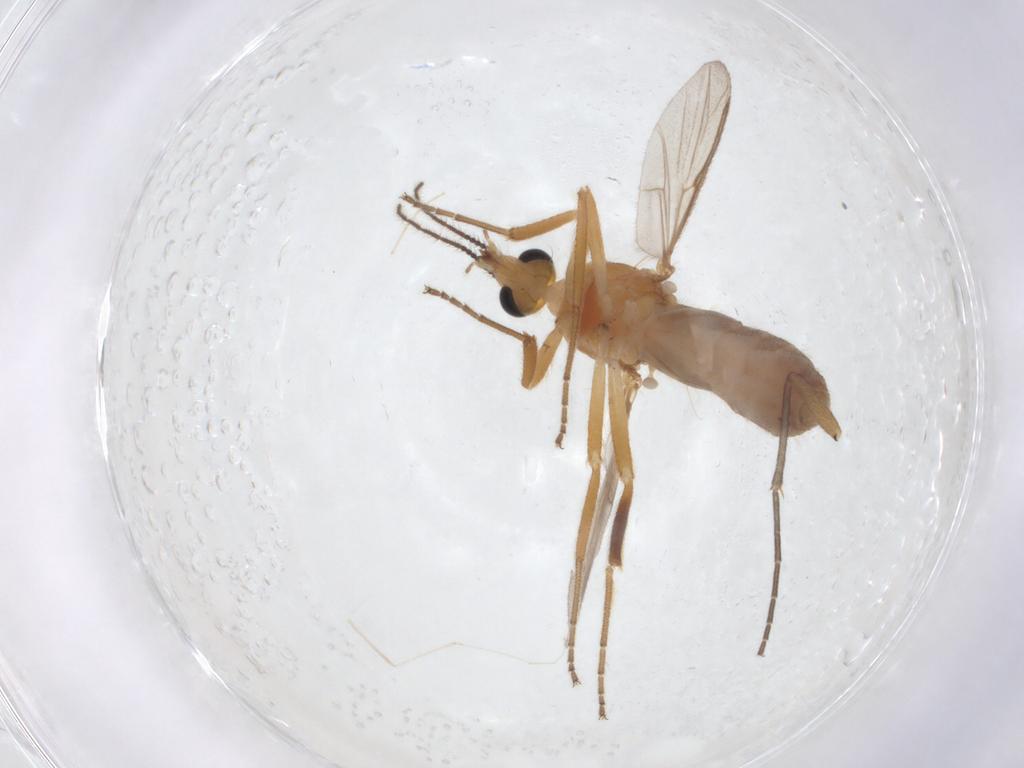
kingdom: Animalia
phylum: Arthropoda
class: Insecta
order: Diptera
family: Ceratopogonidae
